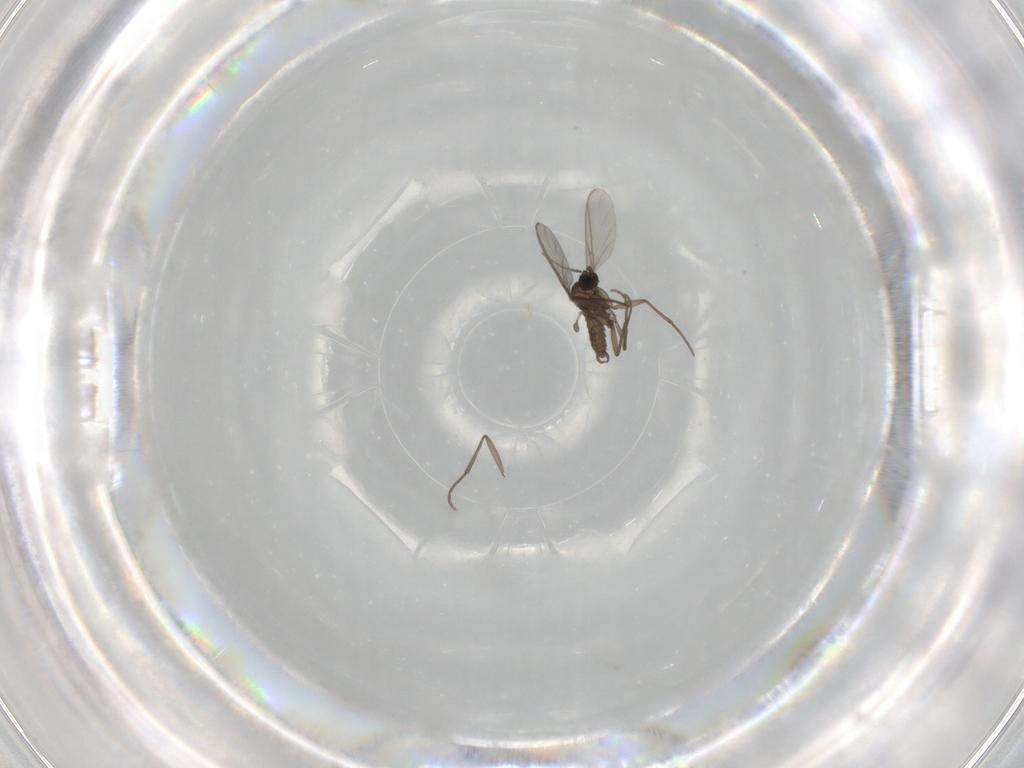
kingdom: Animalia
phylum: Arthropoda
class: Insecta
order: Diptera
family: Sciaridae
